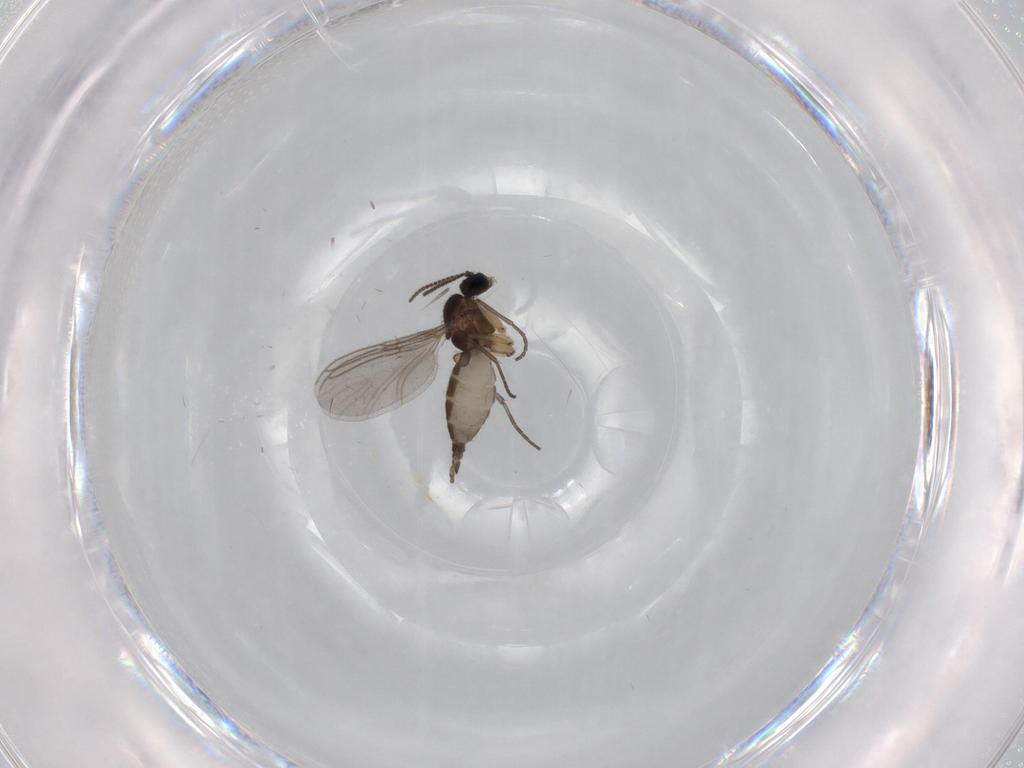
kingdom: Animalia
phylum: Arthropoda
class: Insecta
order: Diptera
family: Sciaridae
